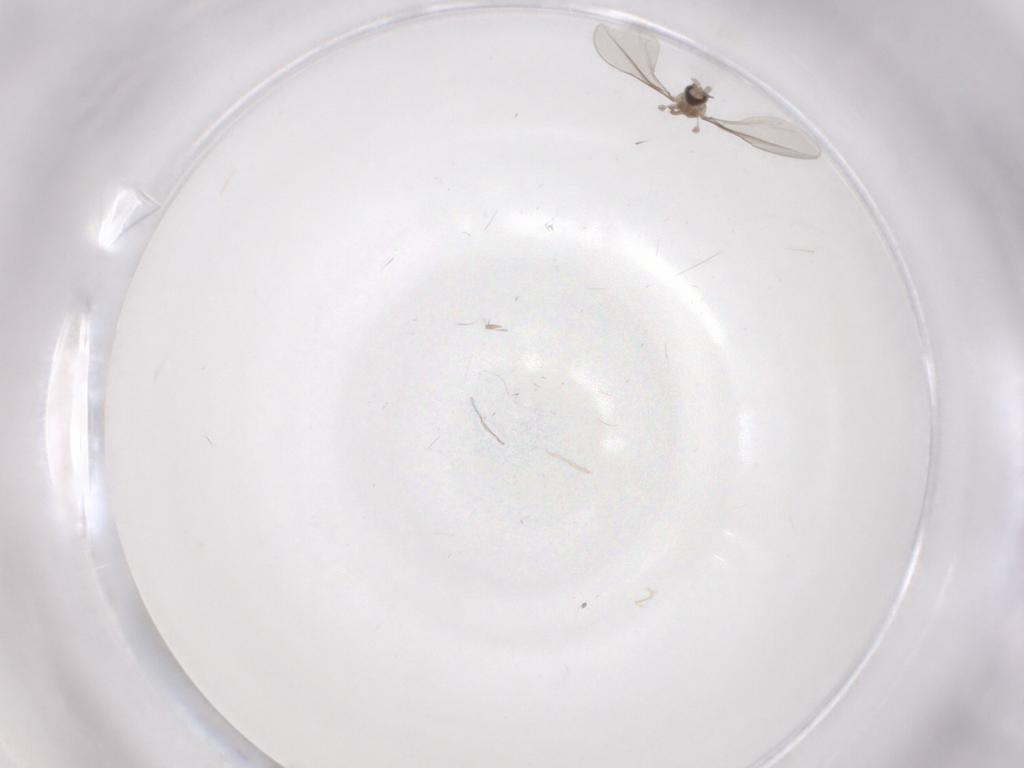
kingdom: Animalia
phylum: Arthropoda
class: Insecta
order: Diptera
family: Cecidomyiidae
